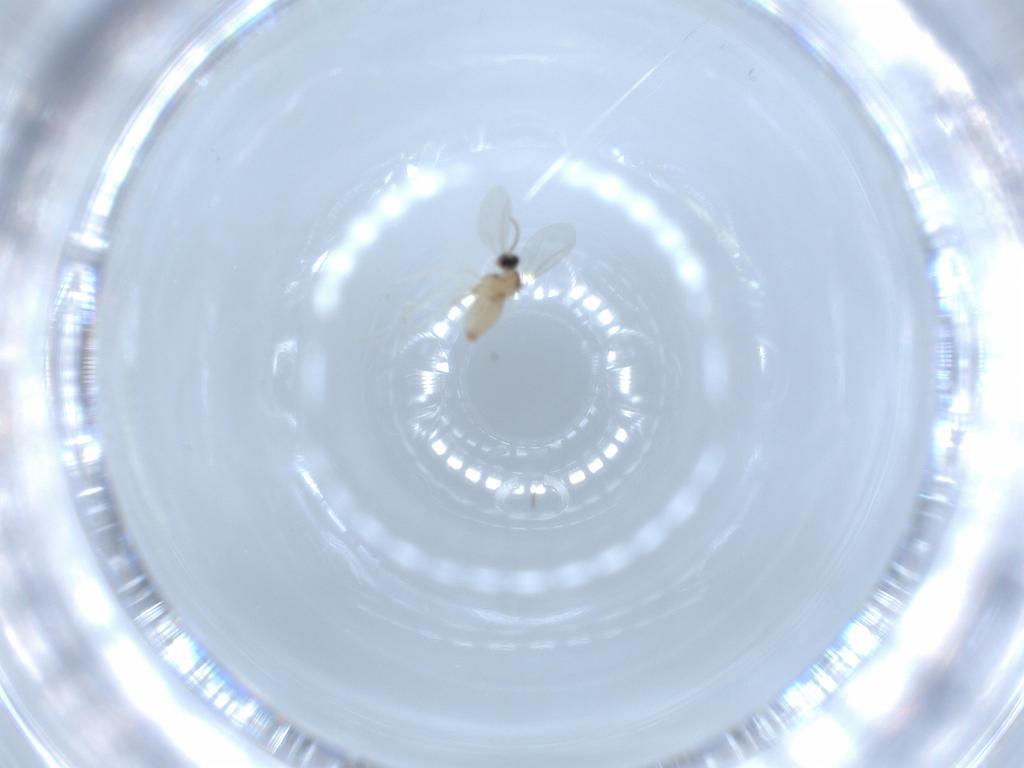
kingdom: Animalia
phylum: Arthropoda
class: Insecta
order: Diptera
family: Cecidomyiidae
